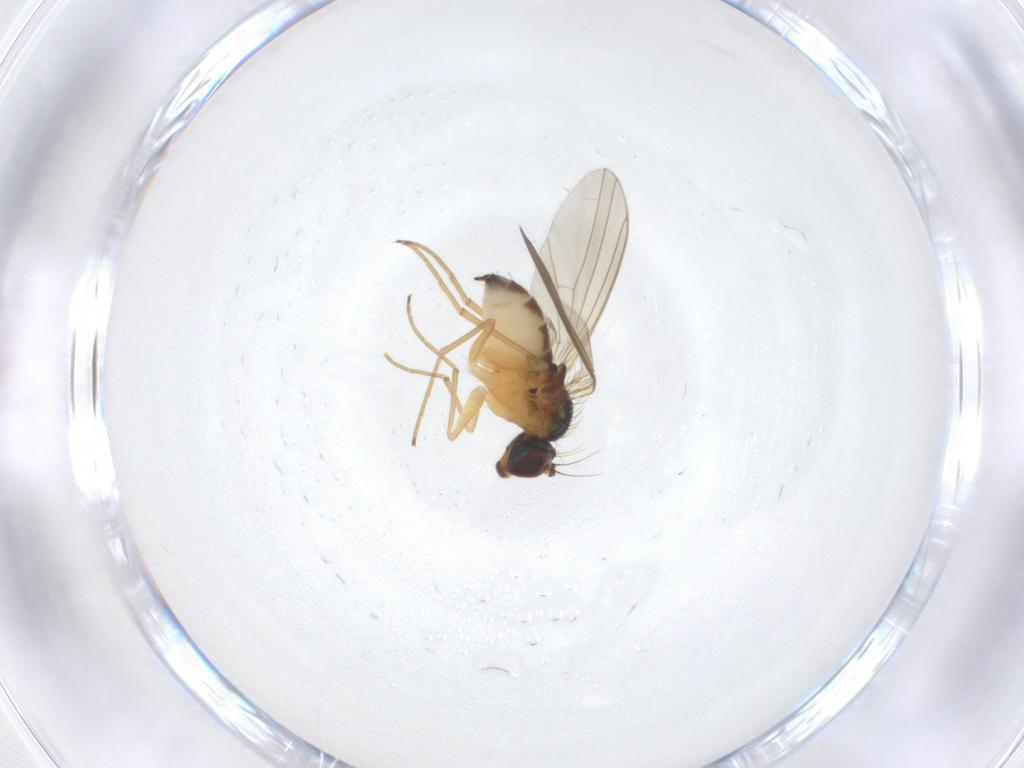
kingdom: Animalia
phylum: Arthropoda
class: Insecta
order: Diptera
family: Dolichopodidae
